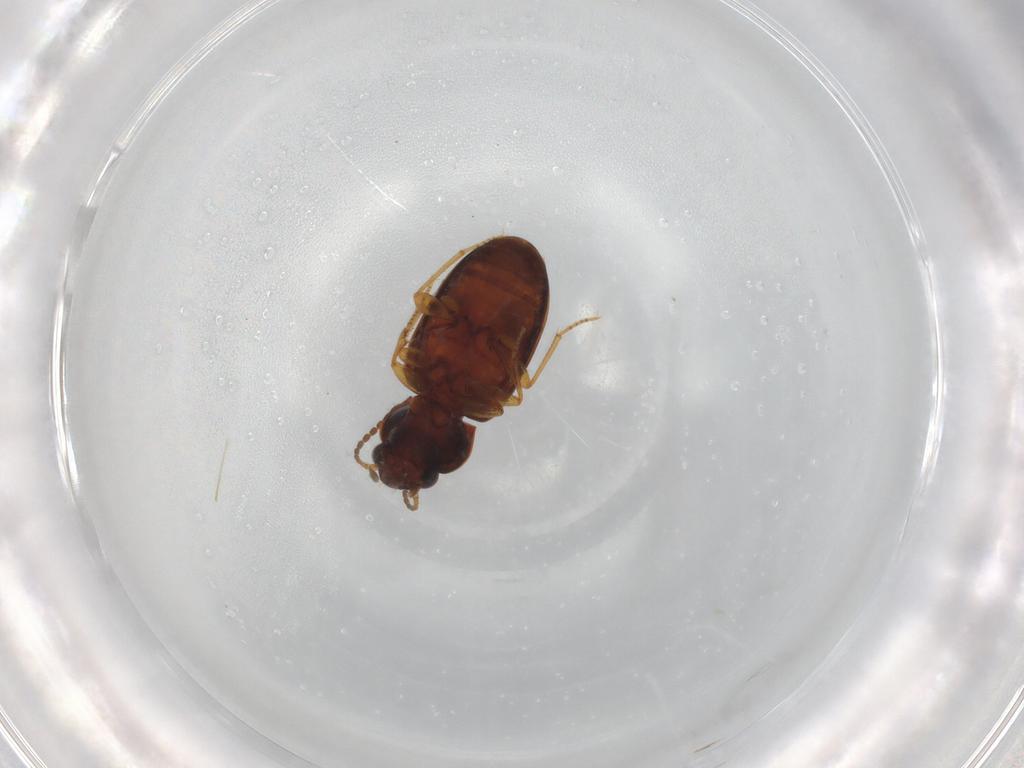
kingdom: Animalia
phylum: Arthropoda
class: Insecta
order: Coleoptera
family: Carabidae
